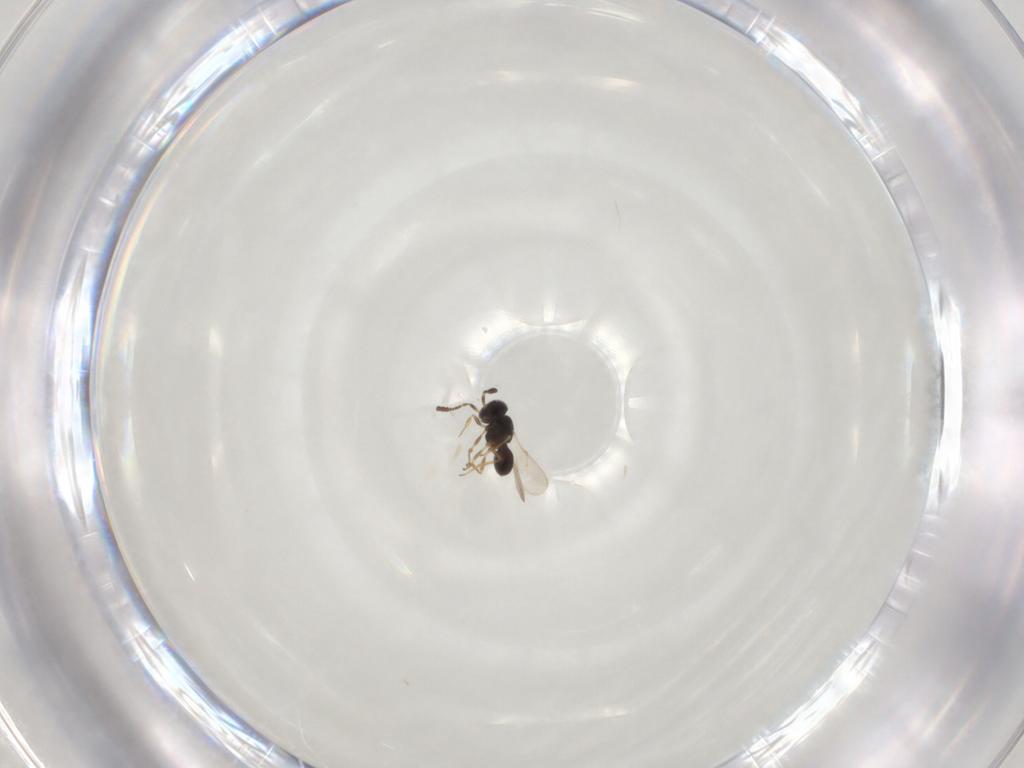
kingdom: Animalia
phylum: Arthropoda
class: Insecta
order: Hymenoptera
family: Scelionidae
